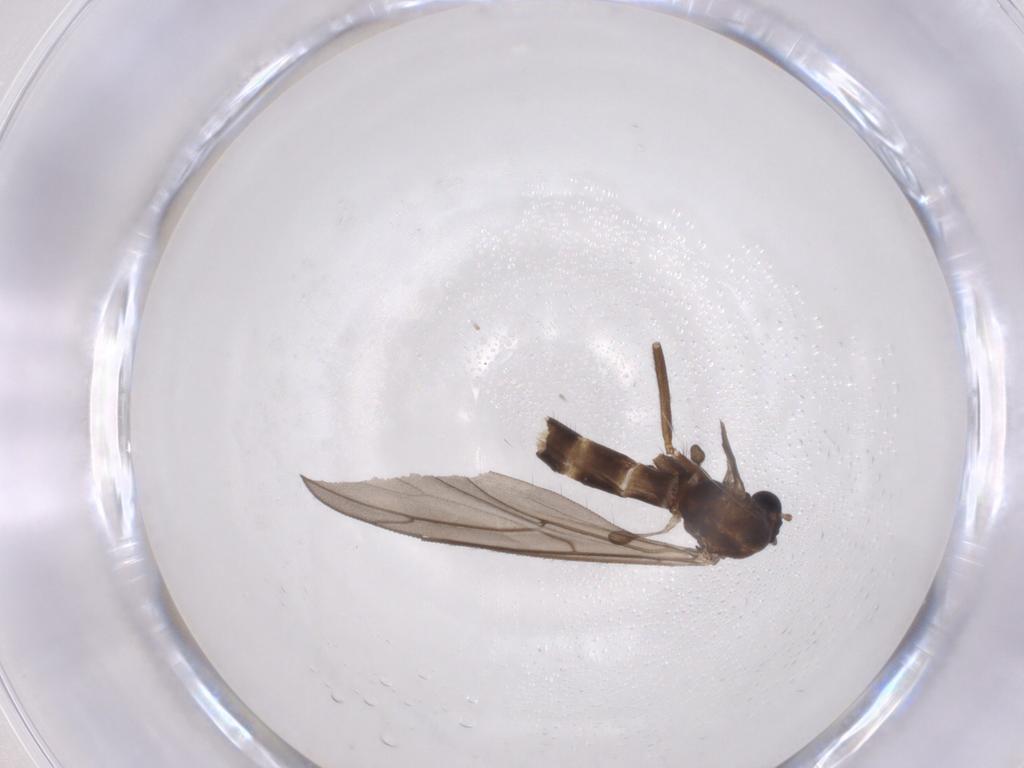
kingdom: Animalia
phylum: Arthropoda
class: Insecta
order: Diptera
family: Keroplatidae
